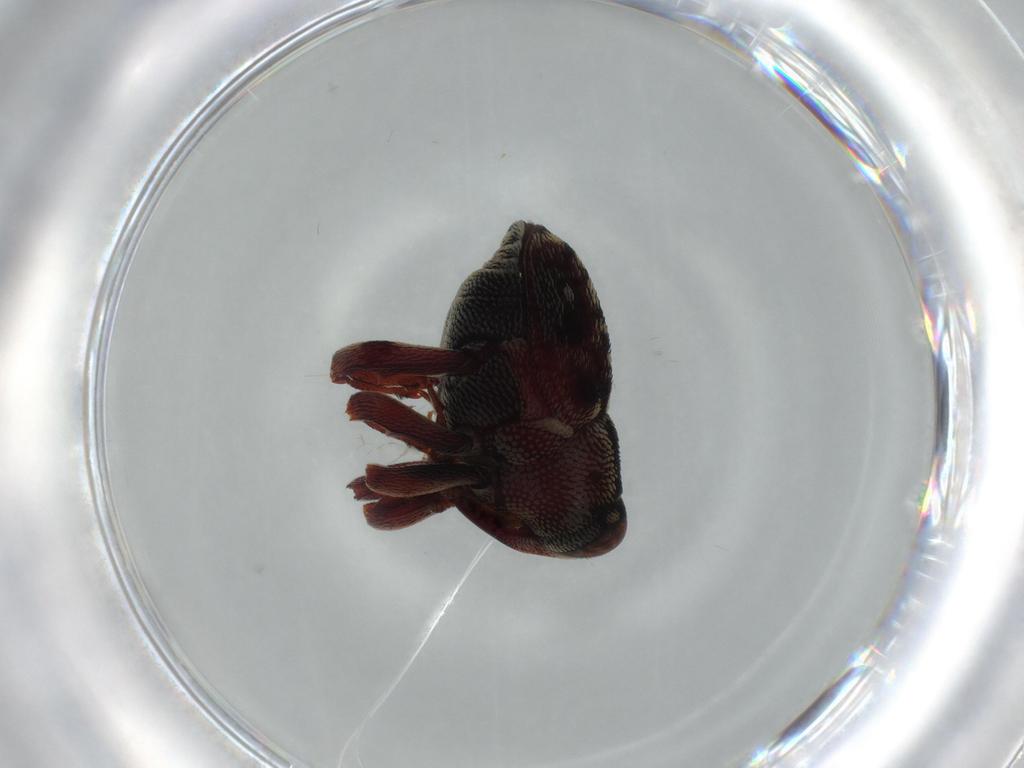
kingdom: Animalia
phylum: Arthropoda
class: Insecta
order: Coleoptera
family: Curculionidae
